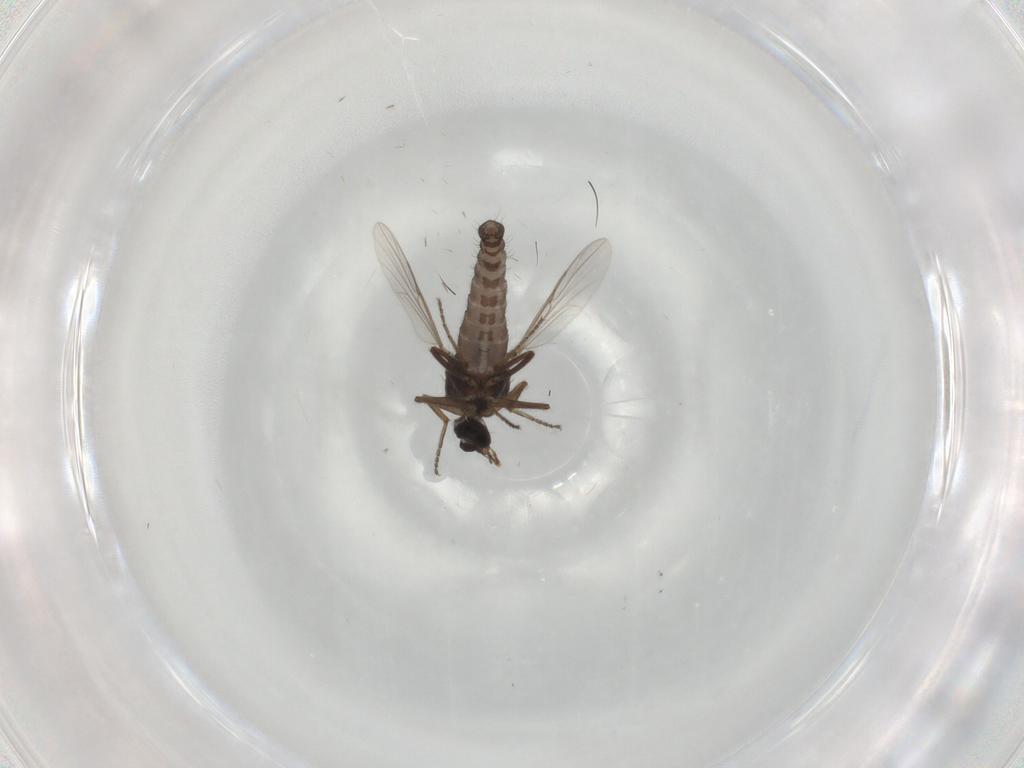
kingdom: Animalia
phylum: Arthropoda
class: Insecta
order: Diptera
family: Ceratopogonidae
